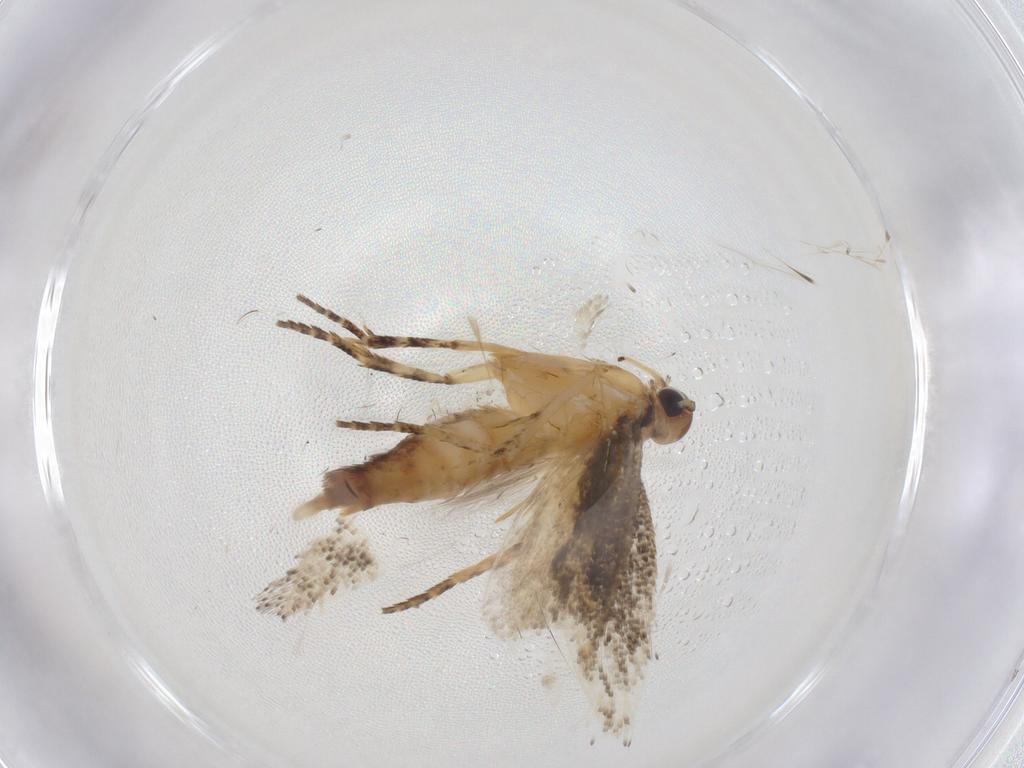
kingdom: Animalia
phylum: Arthropoda
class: Insecta
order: Lepidoptera
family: Gelechiidae
